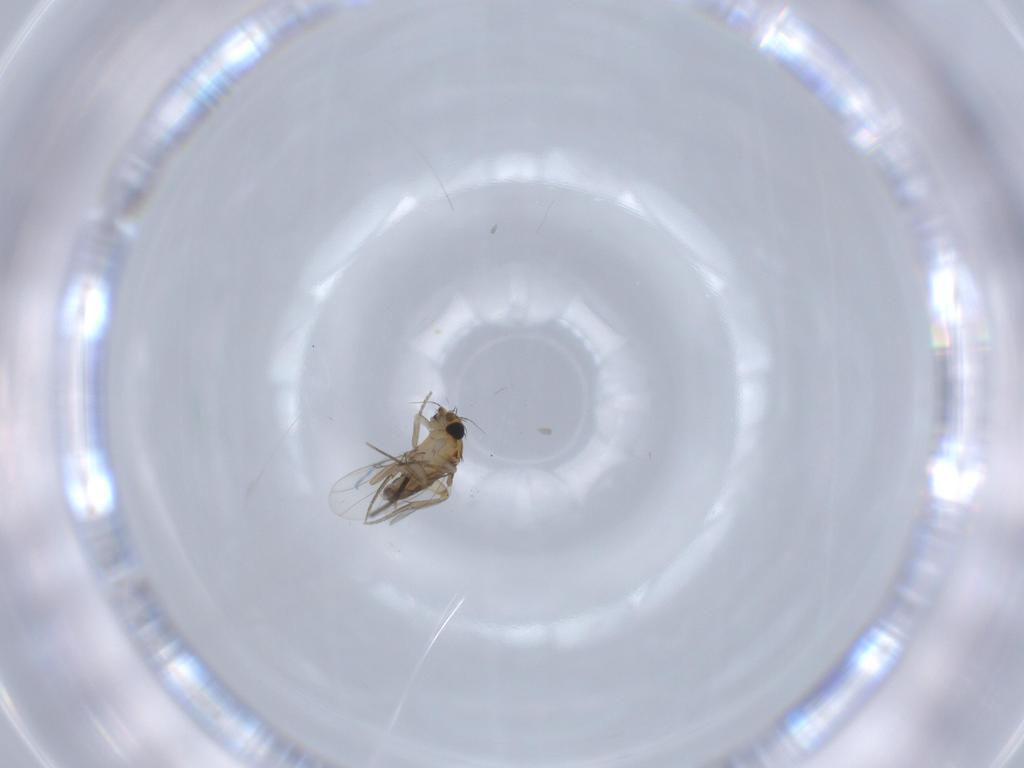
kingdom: Animalia
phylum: Arthropoda
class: Insecta
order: Diptera
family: Phoridae
